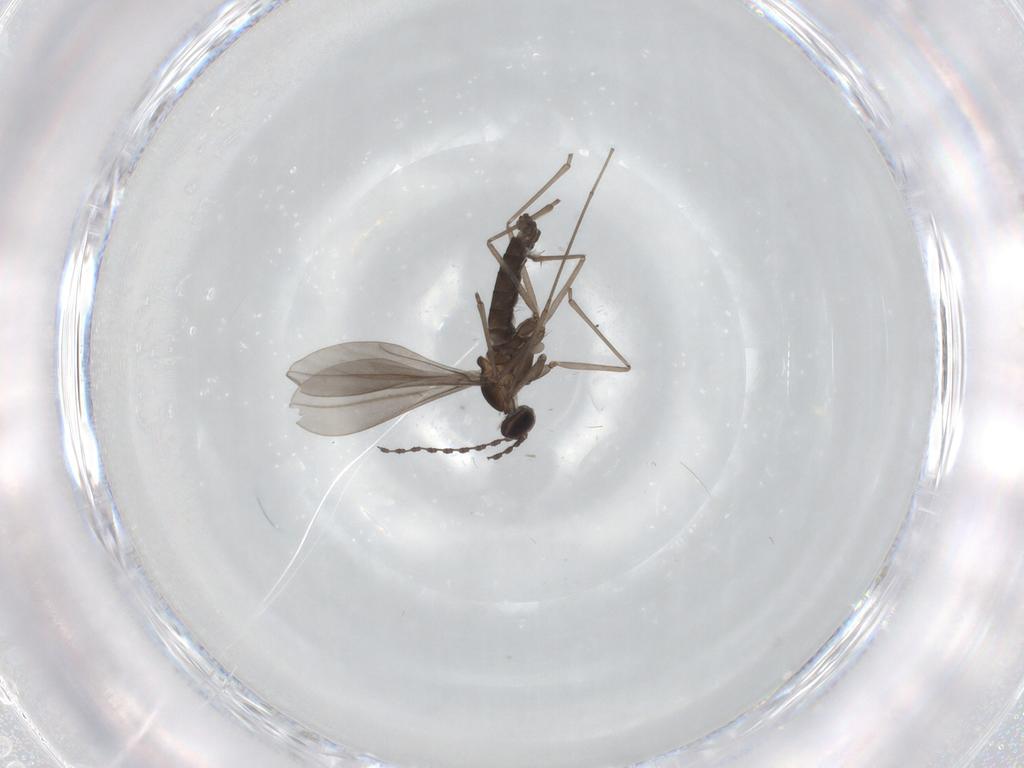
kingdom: Animalia
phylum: Arthropoda
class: Insecta
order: Diptera
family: Cecidomyiidae
